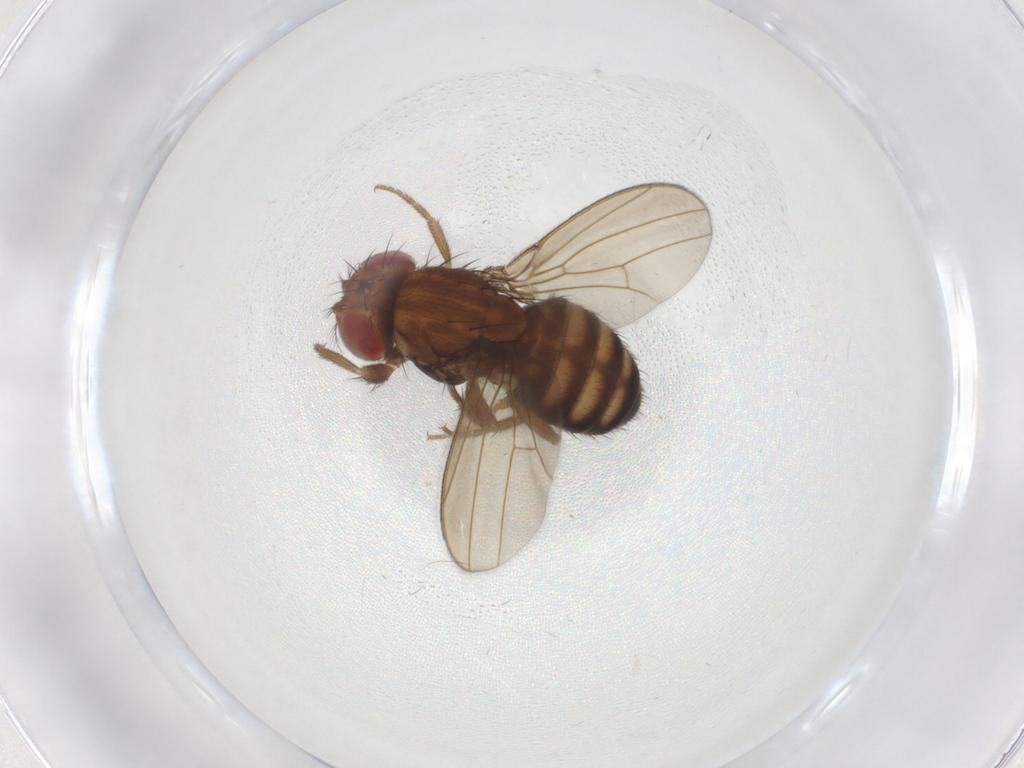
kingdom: Animalia
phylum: Arthropoda
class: Insecta
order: Diptera
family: Drosophilidae
